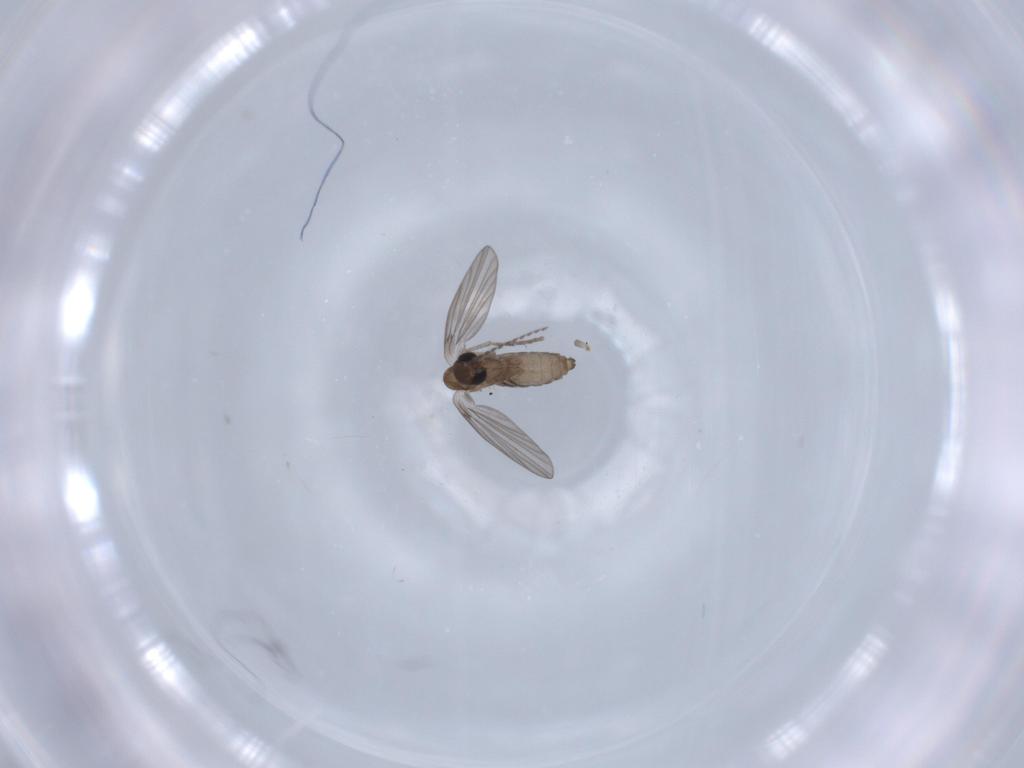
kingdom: Animalia
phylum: Arthropoda
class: Insecta
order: Diptera
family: Psychodidae
